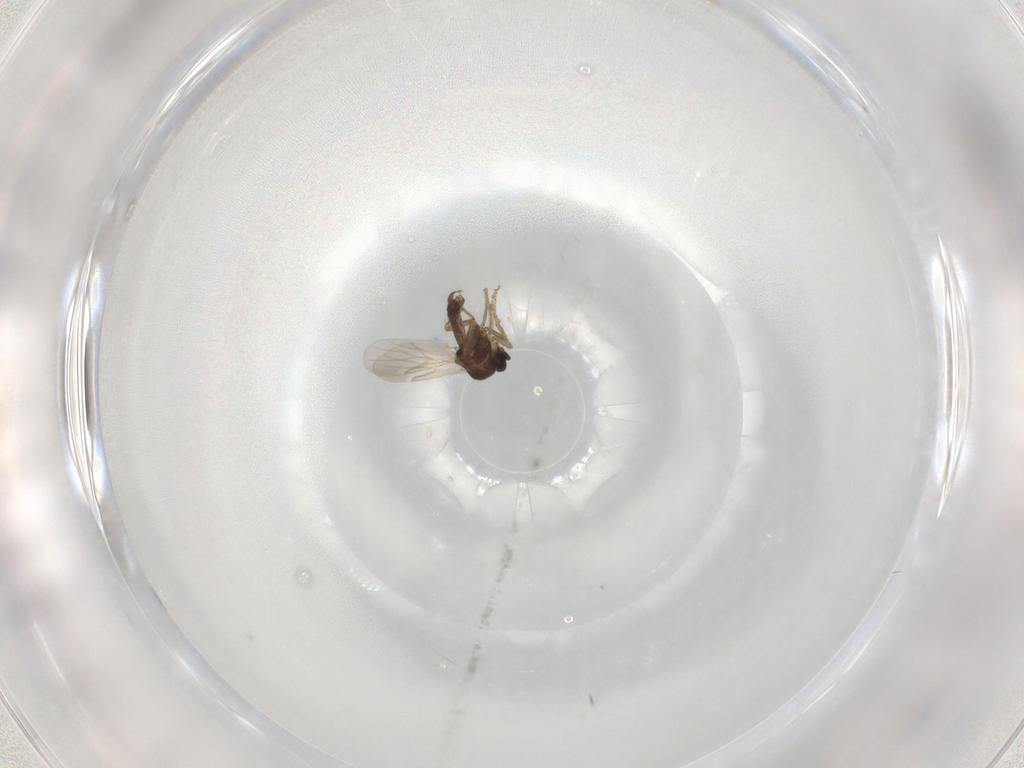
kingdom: Animalia
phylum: Arthropoda
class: Insecta
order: Diptera
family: Ceratopogonidae
